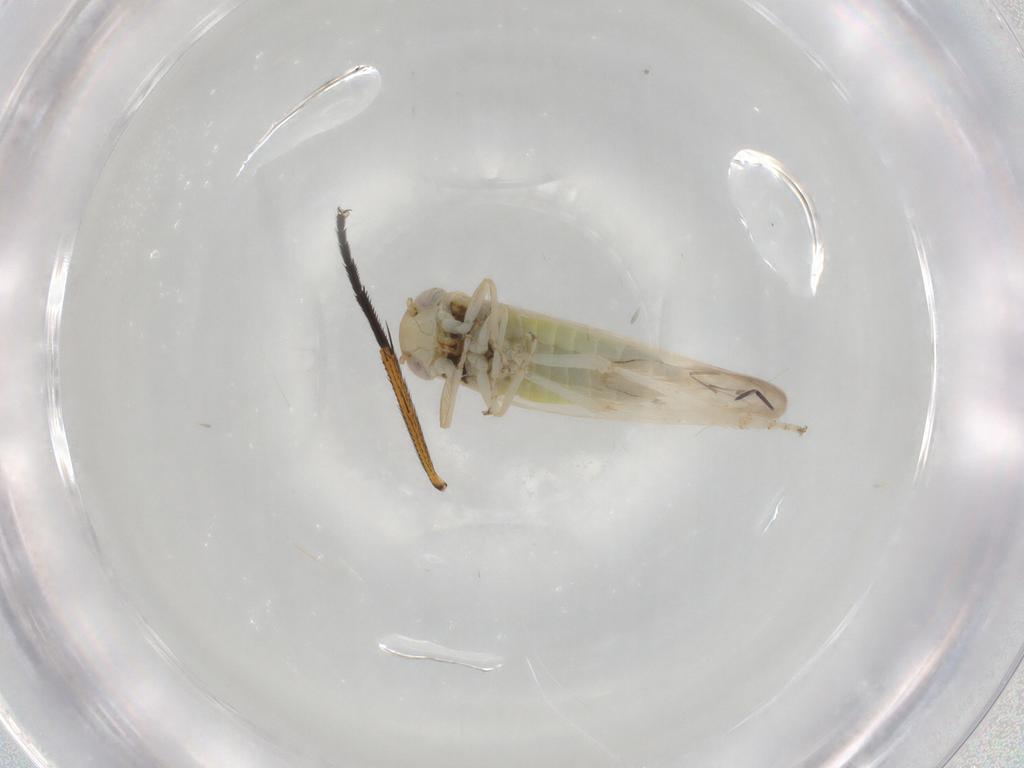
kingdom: Animalia
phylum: Arthropoda
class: Insecta
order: Hemiptera
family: Cicadellidae
